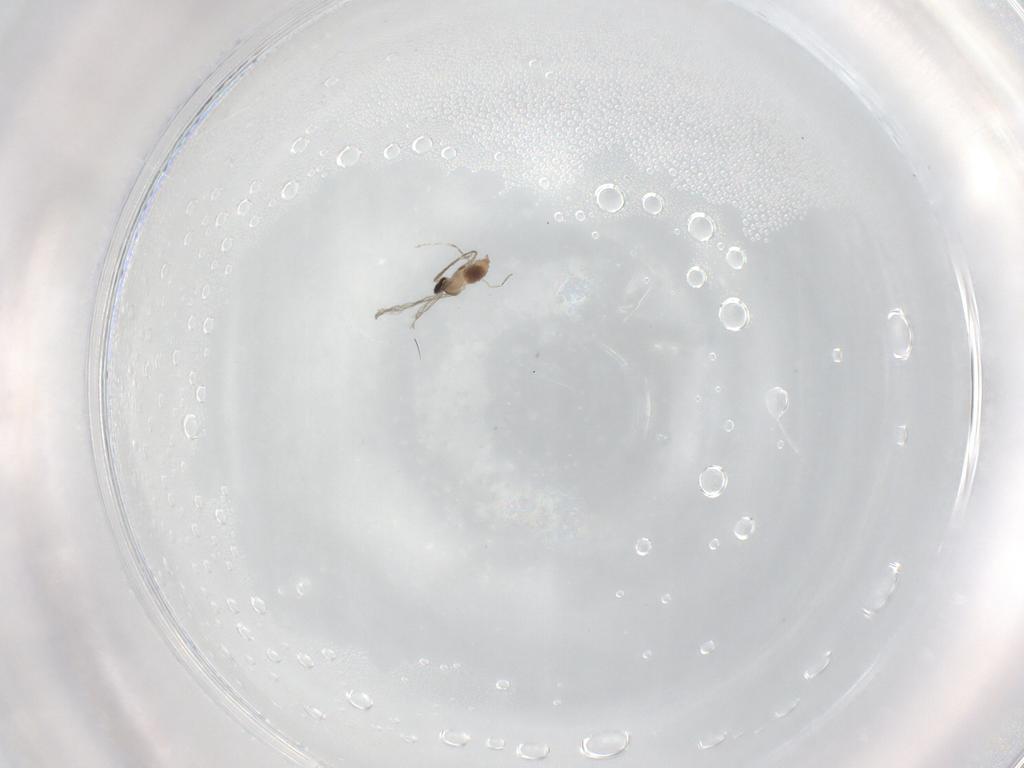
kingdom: Animalia
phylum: Arthropoda
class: Insecta
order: Diptera
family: Cecidomyiidae
